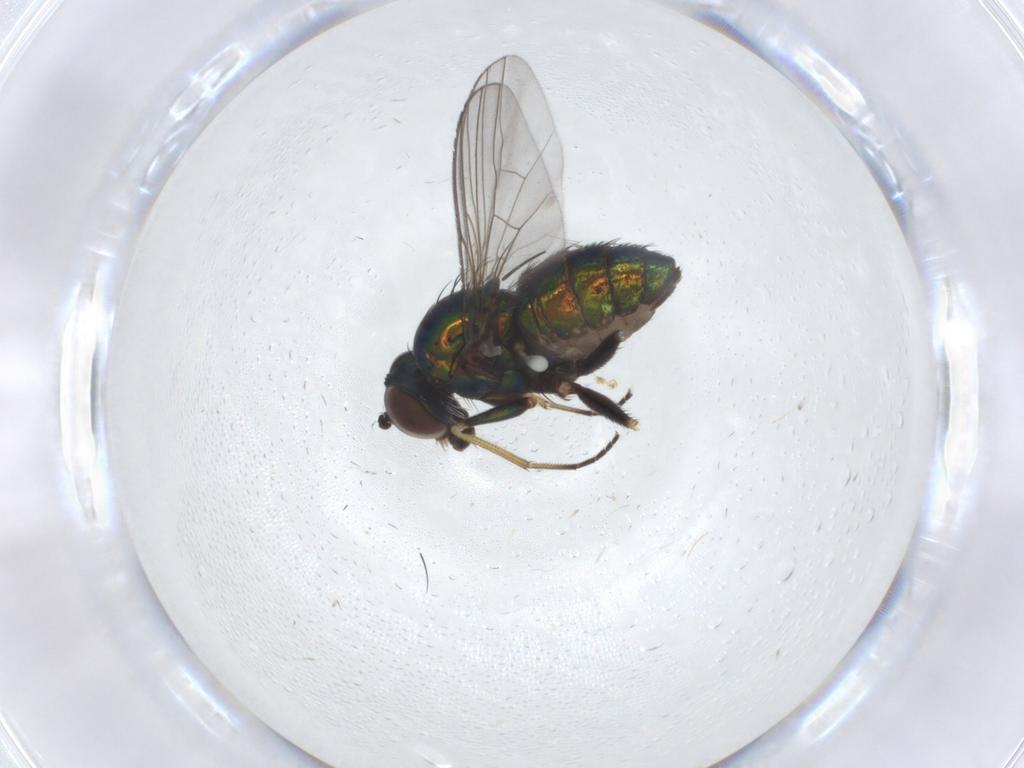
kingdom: Animalia
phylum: Arthropoda
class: Insecta
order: Diptera
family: Dolichopodidae
